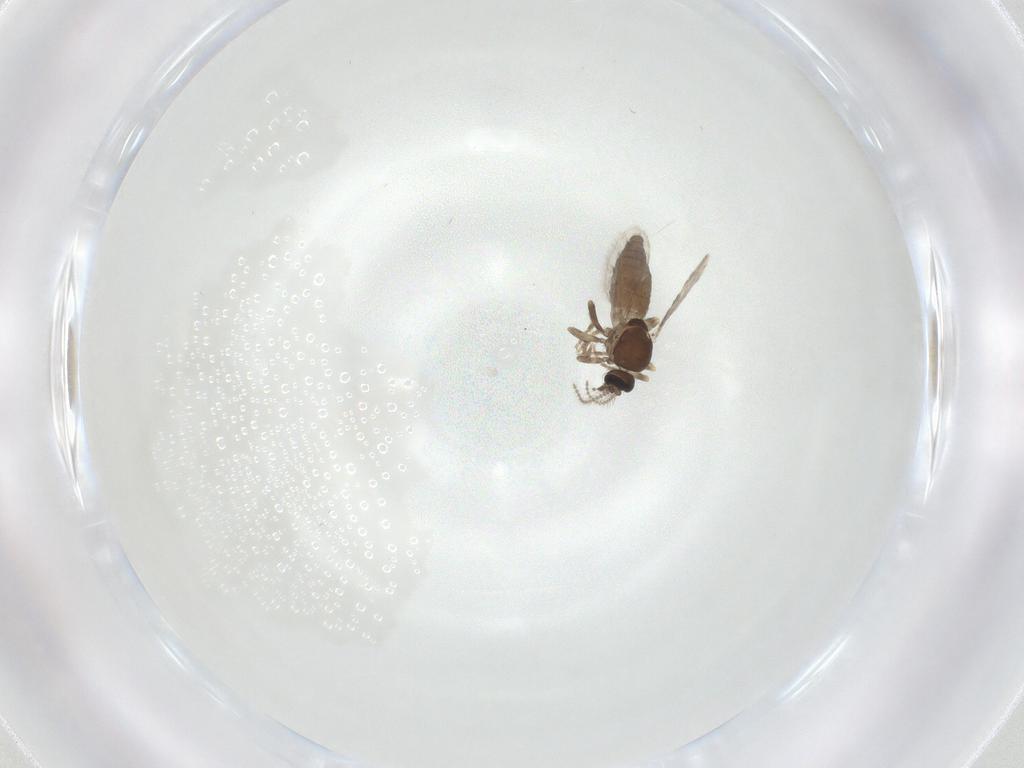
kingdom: Animalia
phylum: Arthropoda
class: Insecta
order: Diptera
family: Ceratopogonidae
